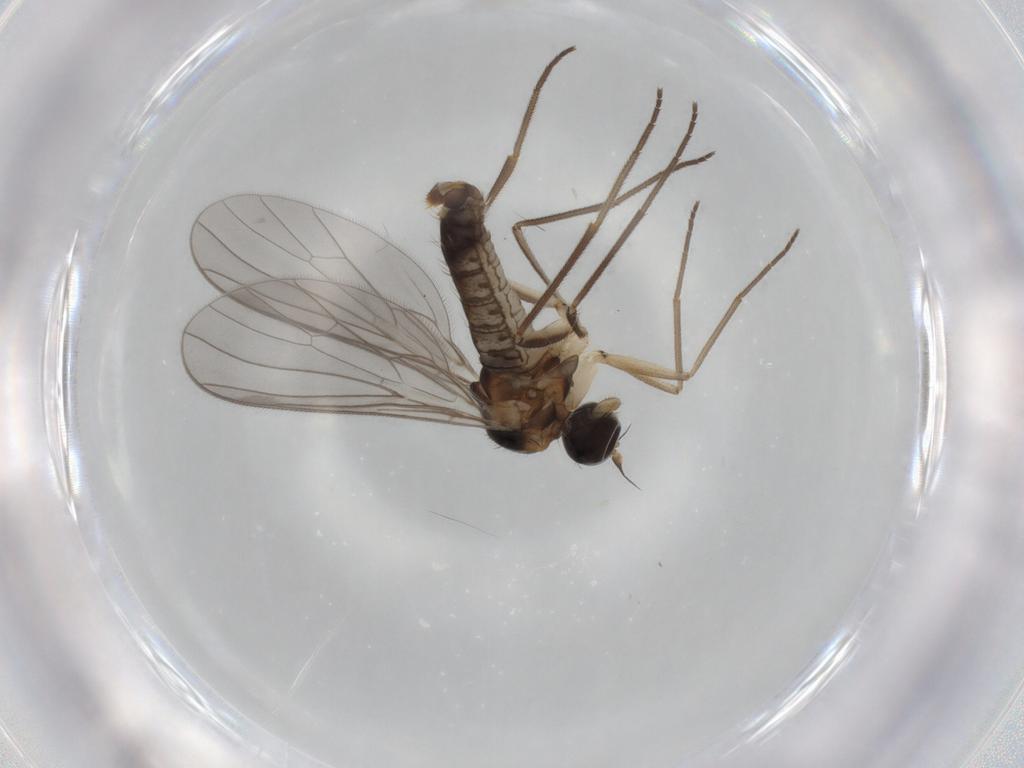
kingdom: Animalia
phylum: Arthropoda
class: Insecta
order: Diptera
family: Empididae
